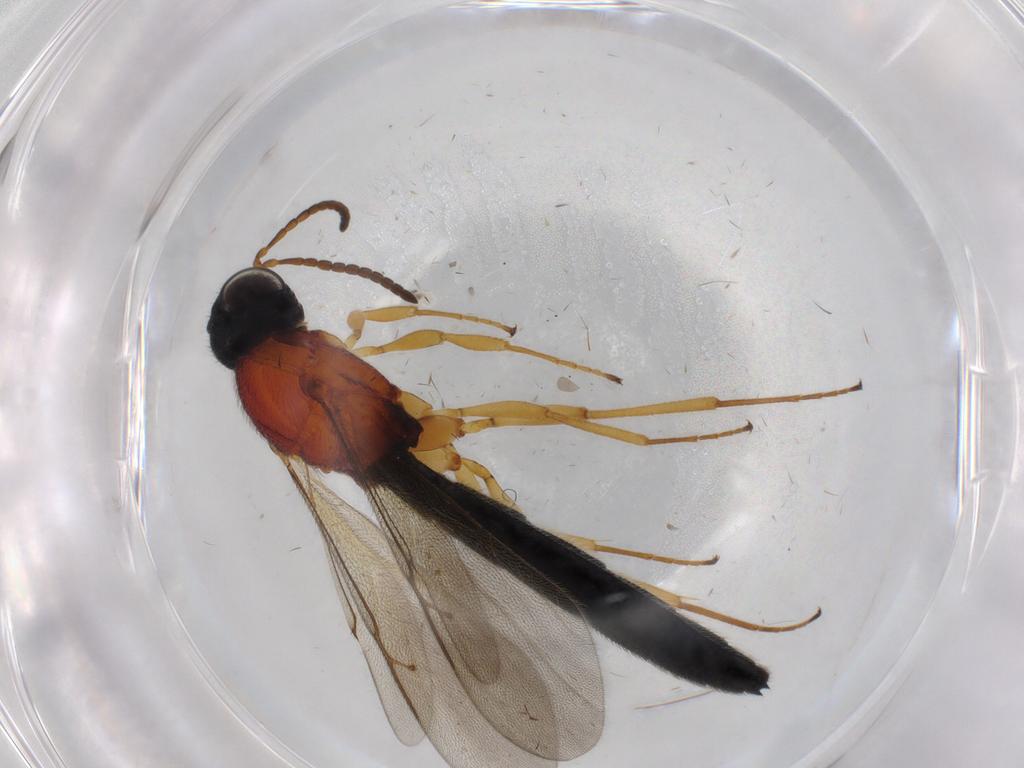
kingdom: Animalia
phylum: Arthropoda
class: Insecta
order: Hymenoptera
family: Scelionidae
